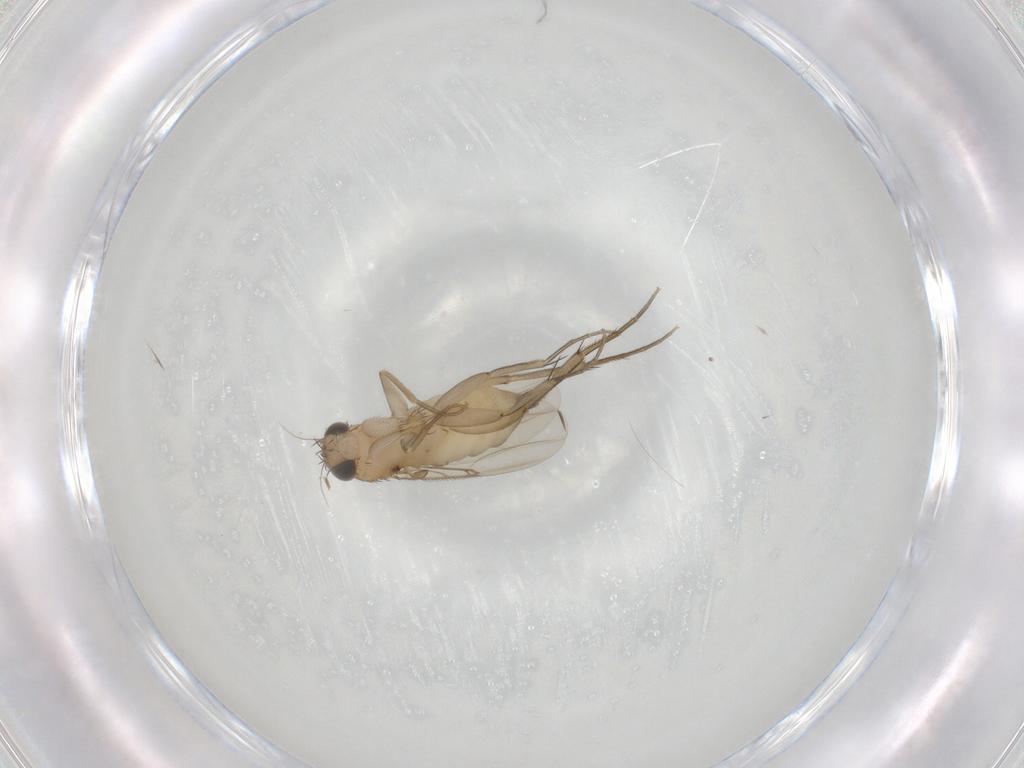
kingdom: Animalia
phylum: Arthropoda
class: Insecta
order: Diptera
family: Phoridae
